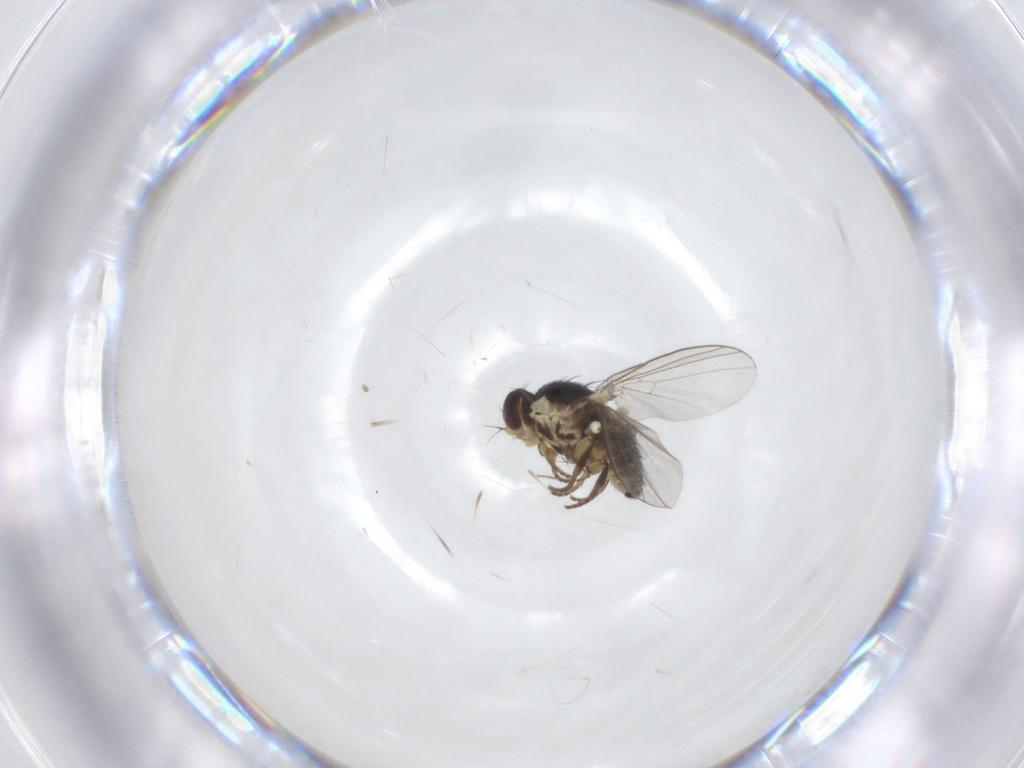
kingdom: Animalia
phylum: Arthropoda
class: Insecta
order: Diptera
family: Agromyzidae
